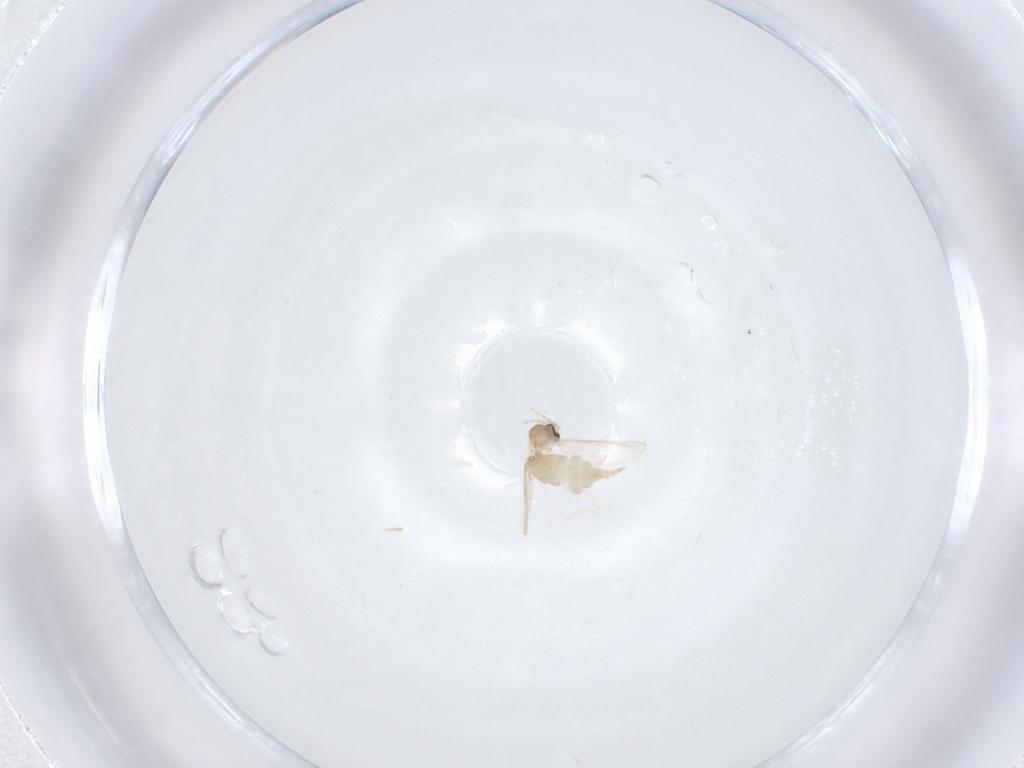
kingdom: Animalia
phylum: Arthropoda
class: Insecta
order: Diptera
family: Cecidomyiidae
